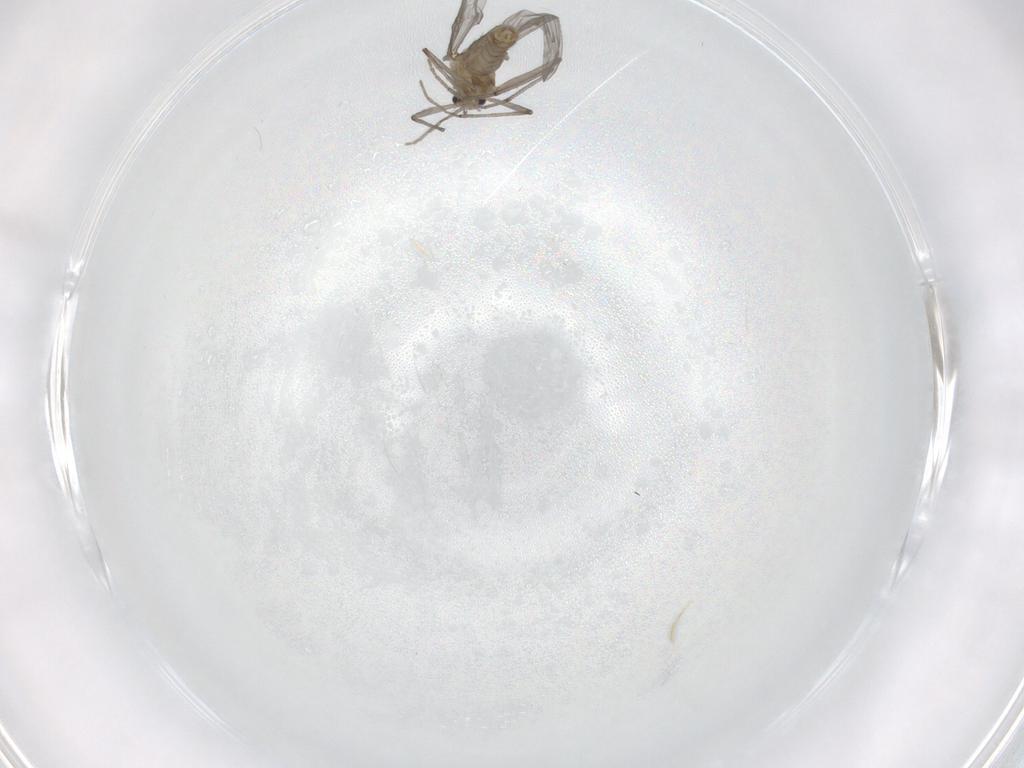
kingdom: Animalia
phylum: Arthropoda
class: Insecta
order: Diptera
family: Chironomidae
